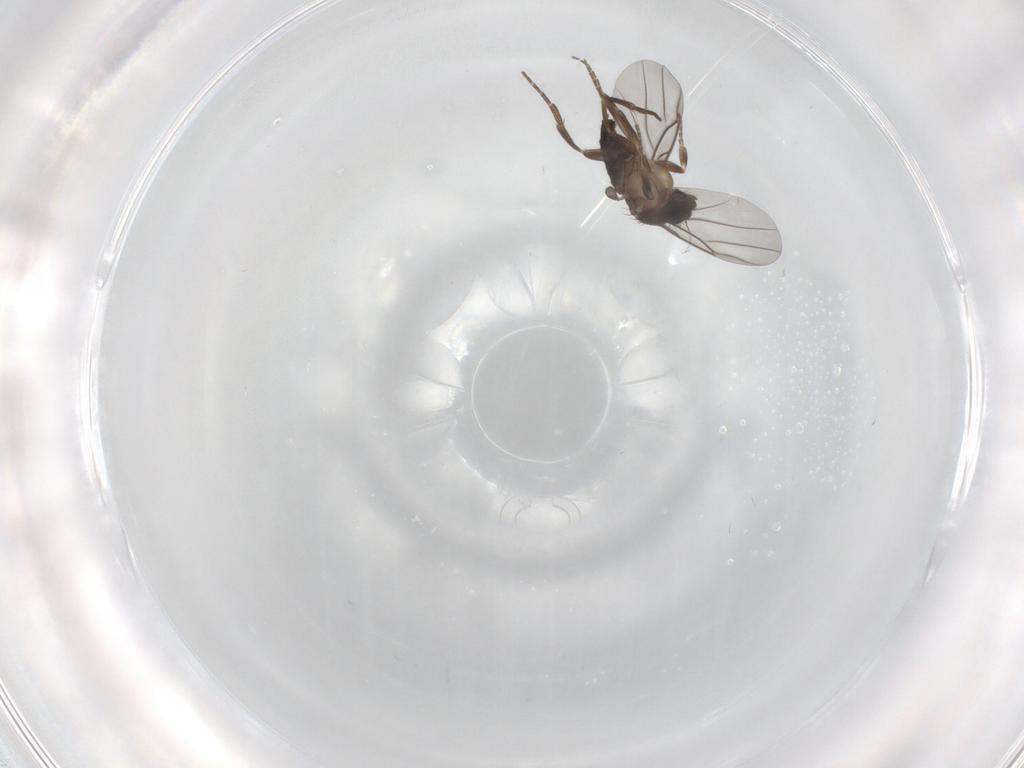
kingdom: Animalia
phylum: Arthropoda
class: Insecta
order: Diptera
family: Phoridae
